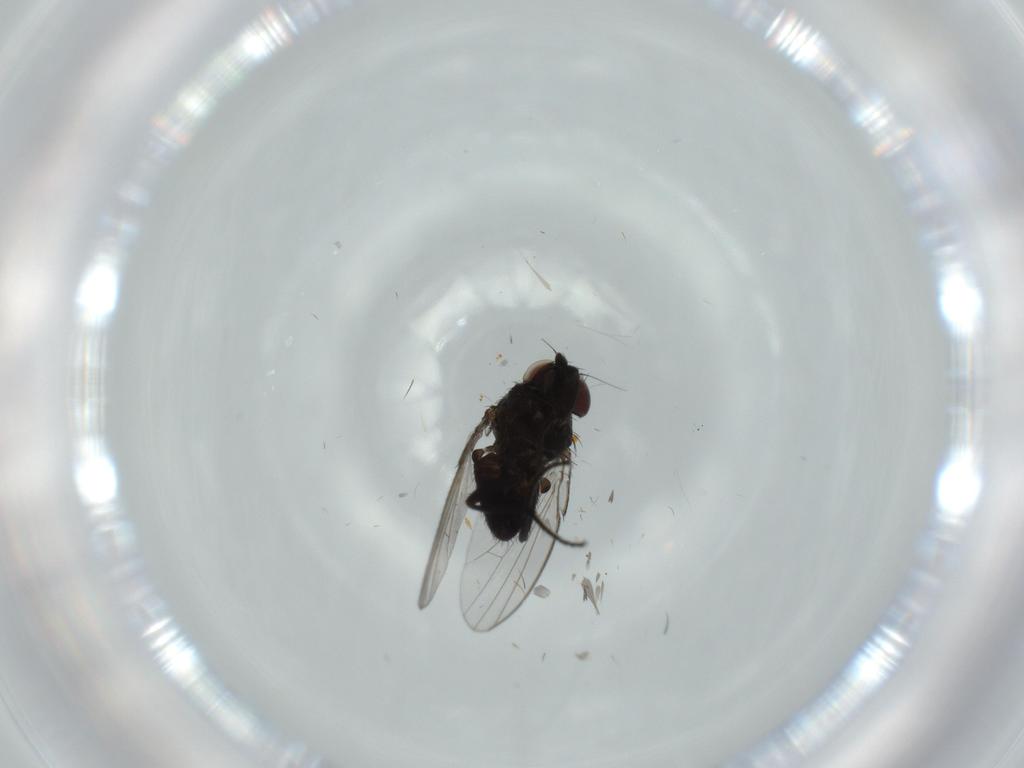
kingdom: Animalia
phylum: Arthropoda
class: Insecta
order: Diptera
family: Milichiidae
